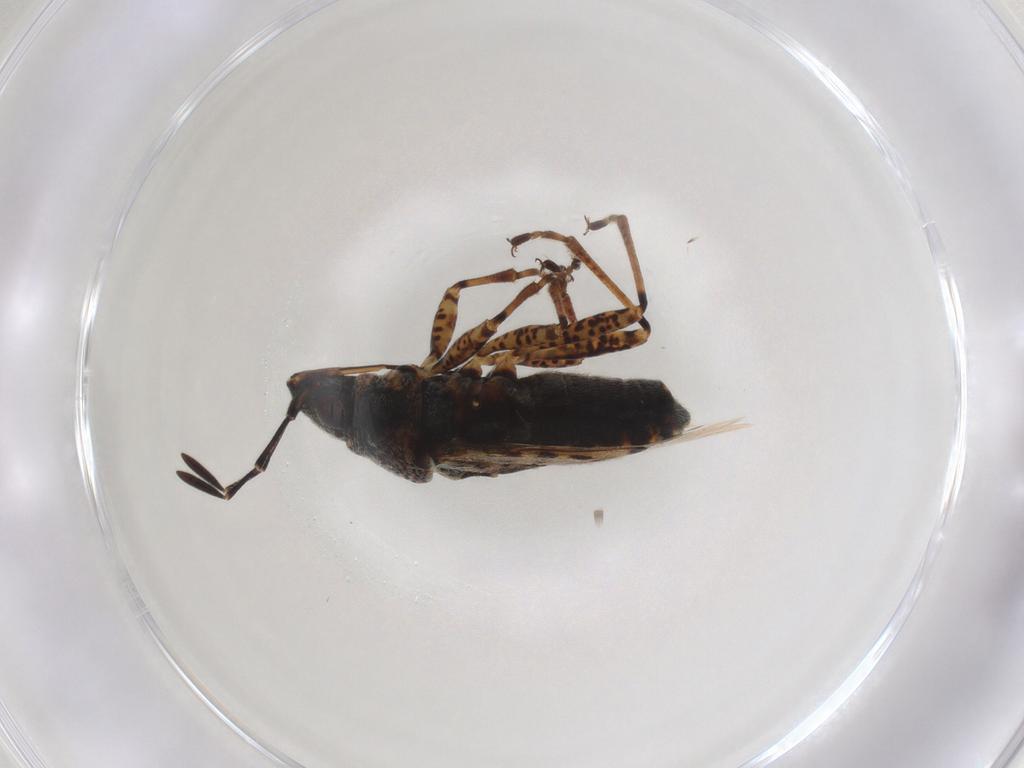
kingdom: Animalia
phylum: Arthropoda
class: Insecta
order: Hemiptera
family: Lygaeidae
